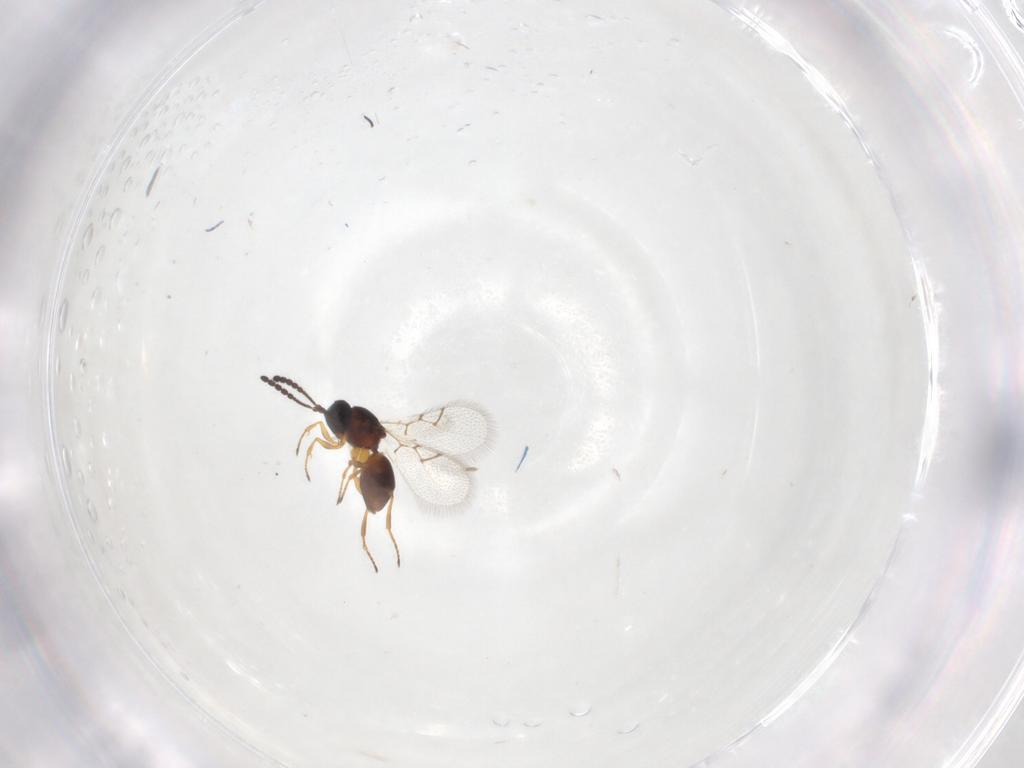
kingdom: Animalia
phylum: Arthropoda
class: Insecta
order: Hymenoptera
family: Figitidae
